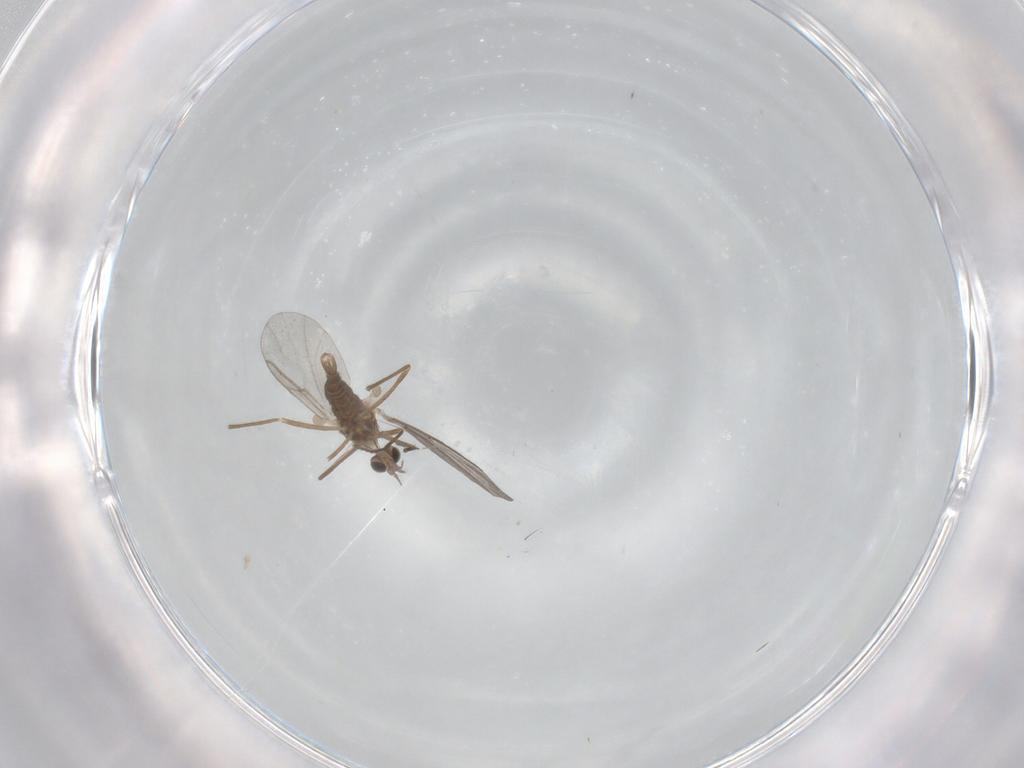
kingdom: Animalia
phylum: Arthropoda
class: Insecta
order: Diptera
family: Cecidomyiidae
